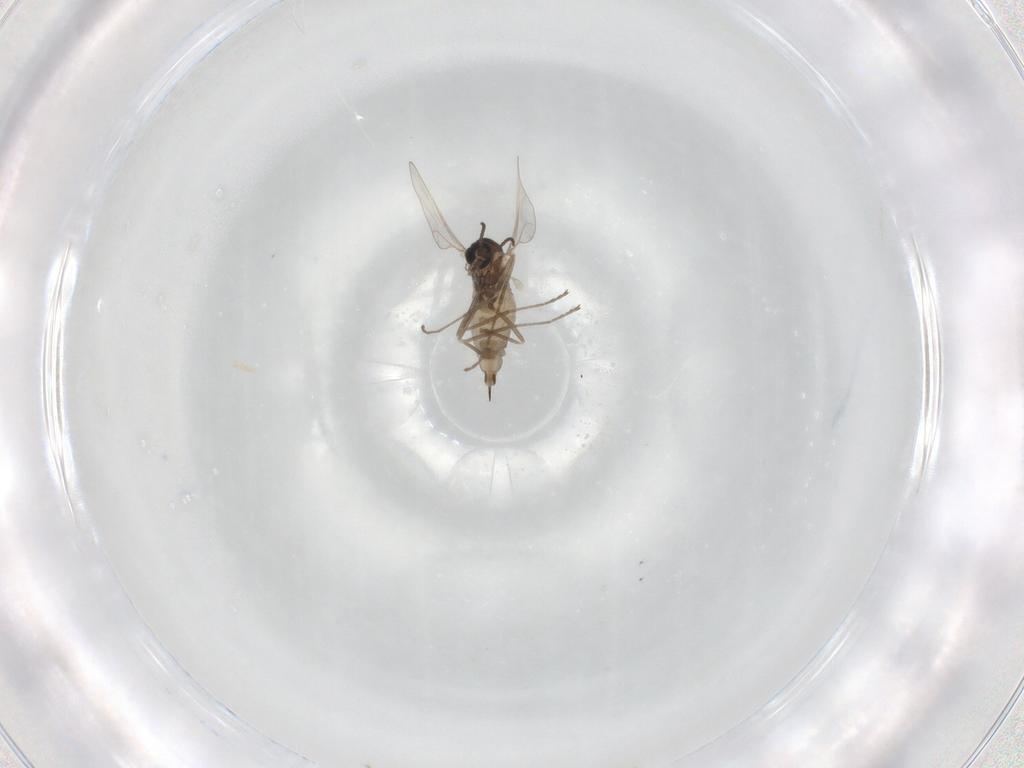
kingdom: Animalia
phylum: Arthropoda
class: Insecta
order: Diptera
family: Cecidomyiidae
